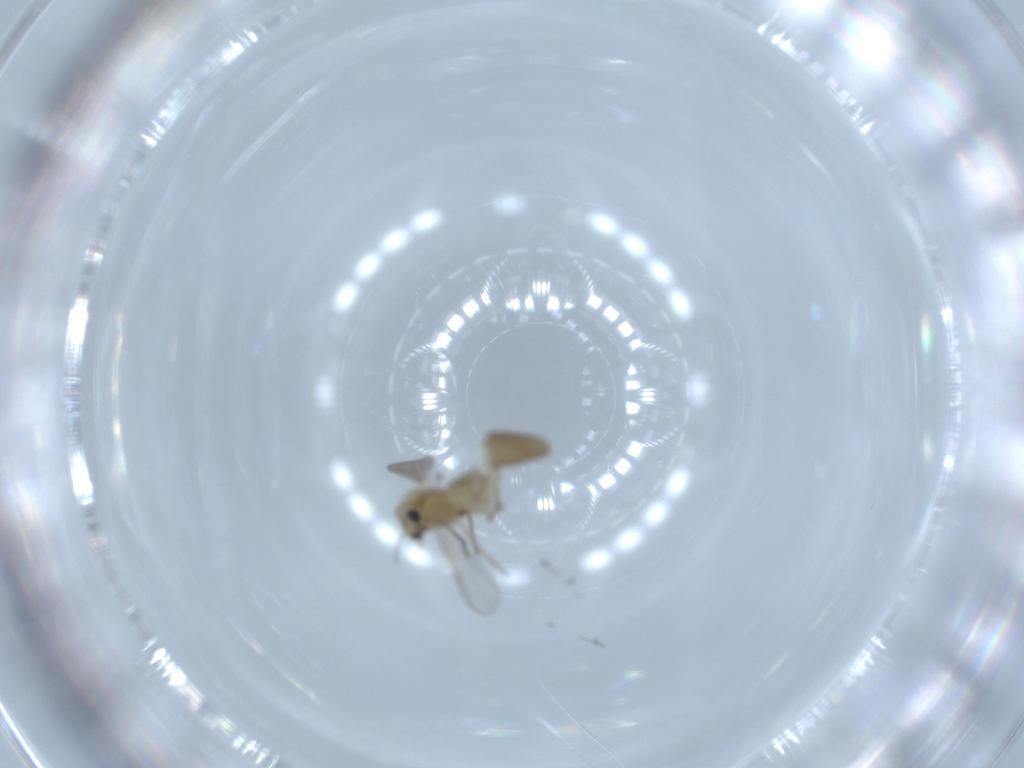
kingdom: Animalia
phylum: Arthropoda
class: Insecta
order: Diptera
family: Chironomidae
